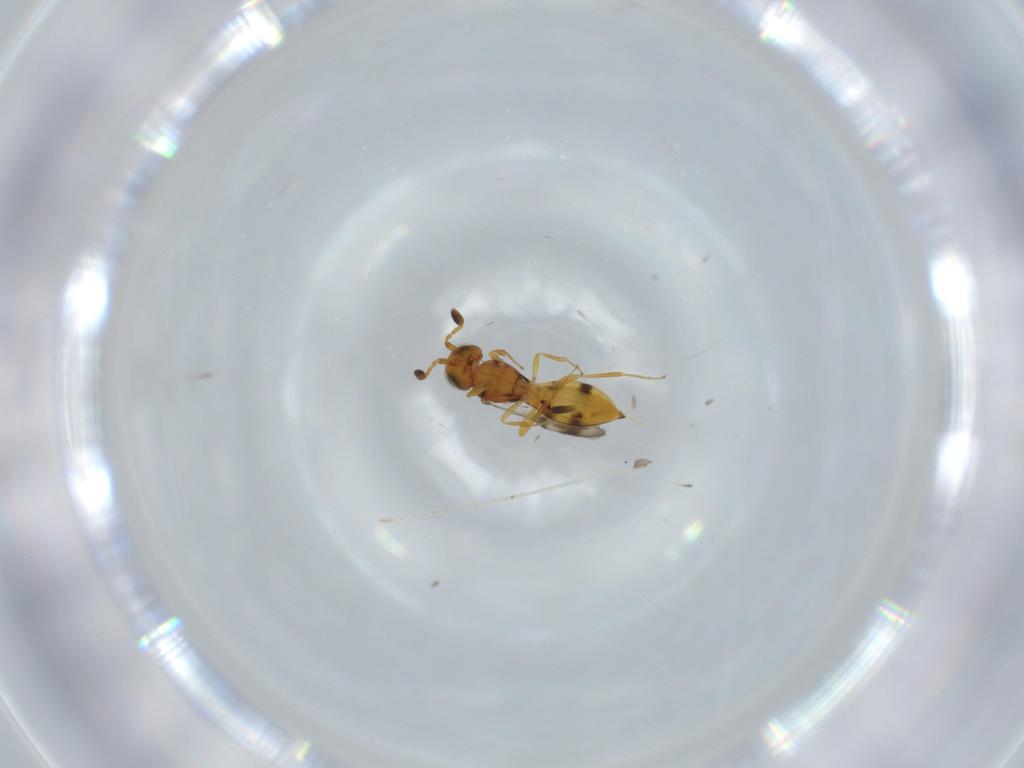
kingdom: Animalia
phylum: Arthropoda
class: Insecta
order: Hymenoptera
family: Scelionidae
